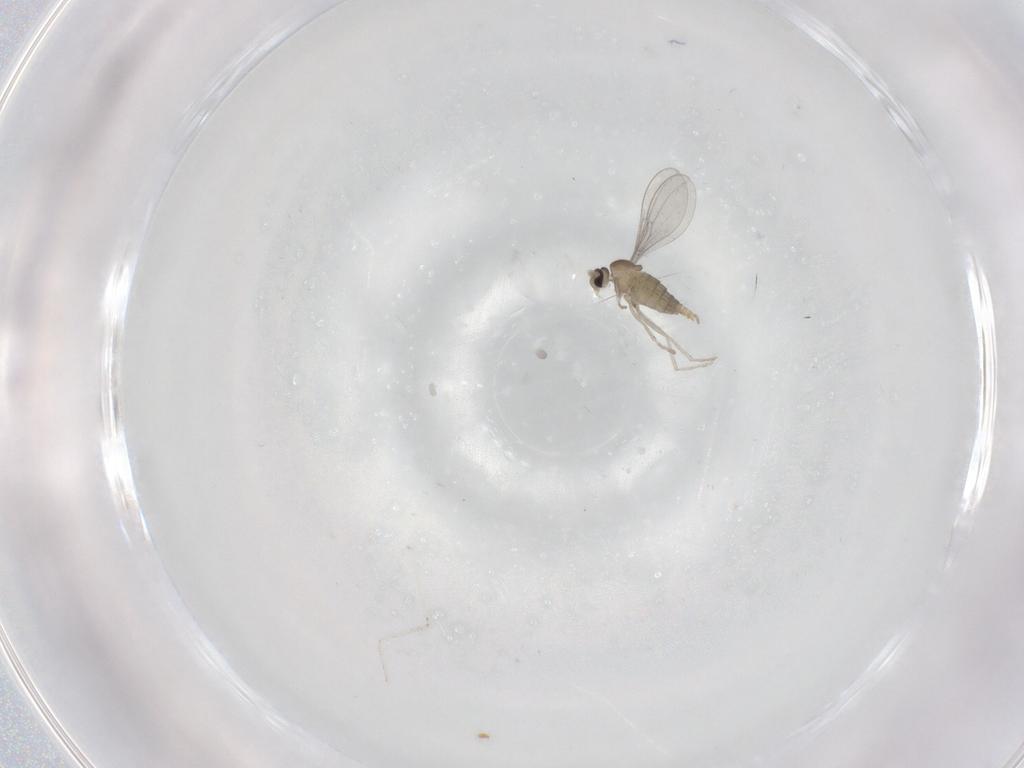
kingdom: Animalia
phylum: Arthropoda
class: Insecta
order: Diptera
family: Cecidomyiidae
